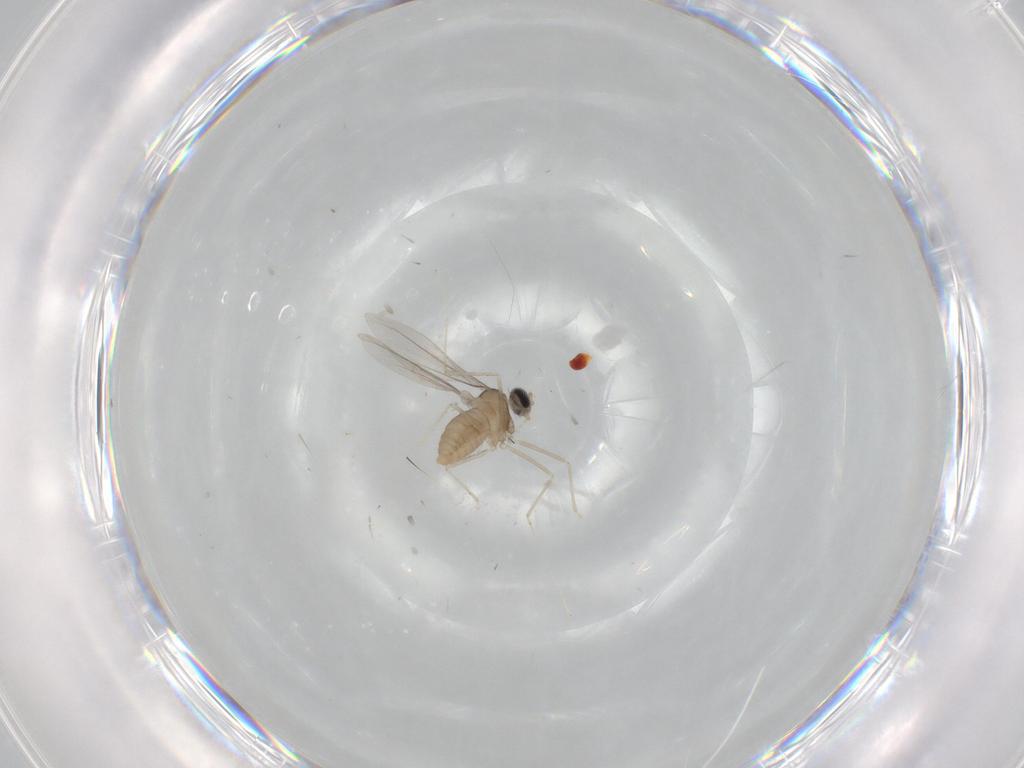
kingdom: Animalia
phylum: Arthropoda
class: Insecta
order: Diptera
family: Cecidomyiidae
